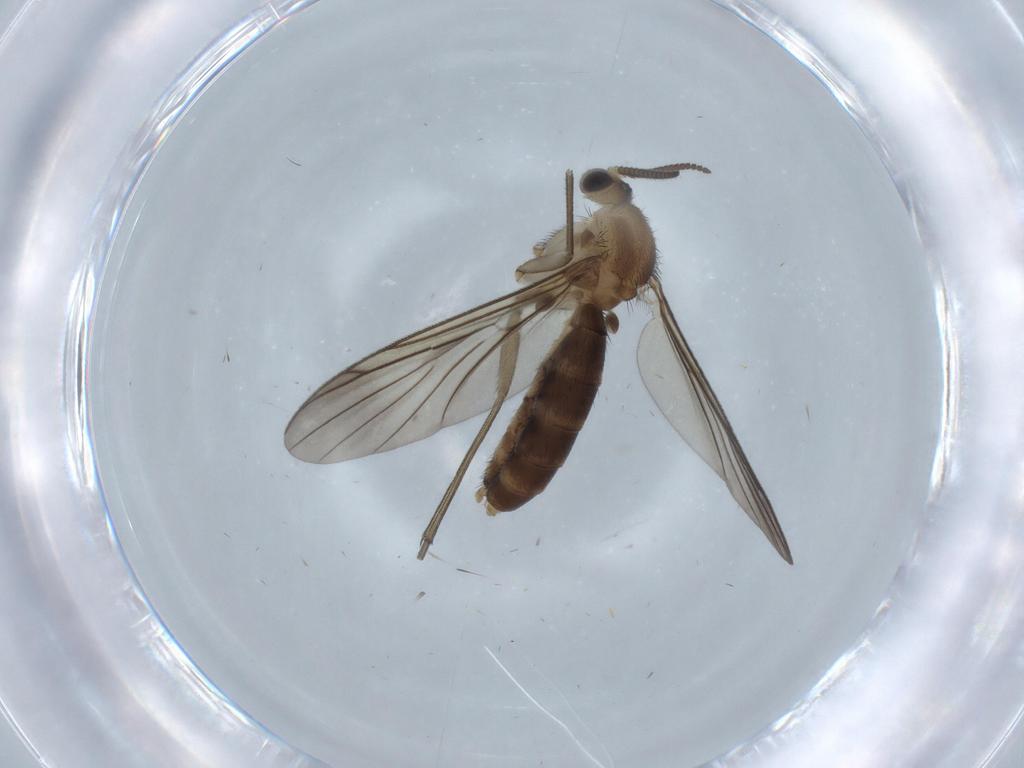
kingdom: Animalia
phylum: Arthropoda
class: Insecta
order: Diptera
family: Mycetophilidae
